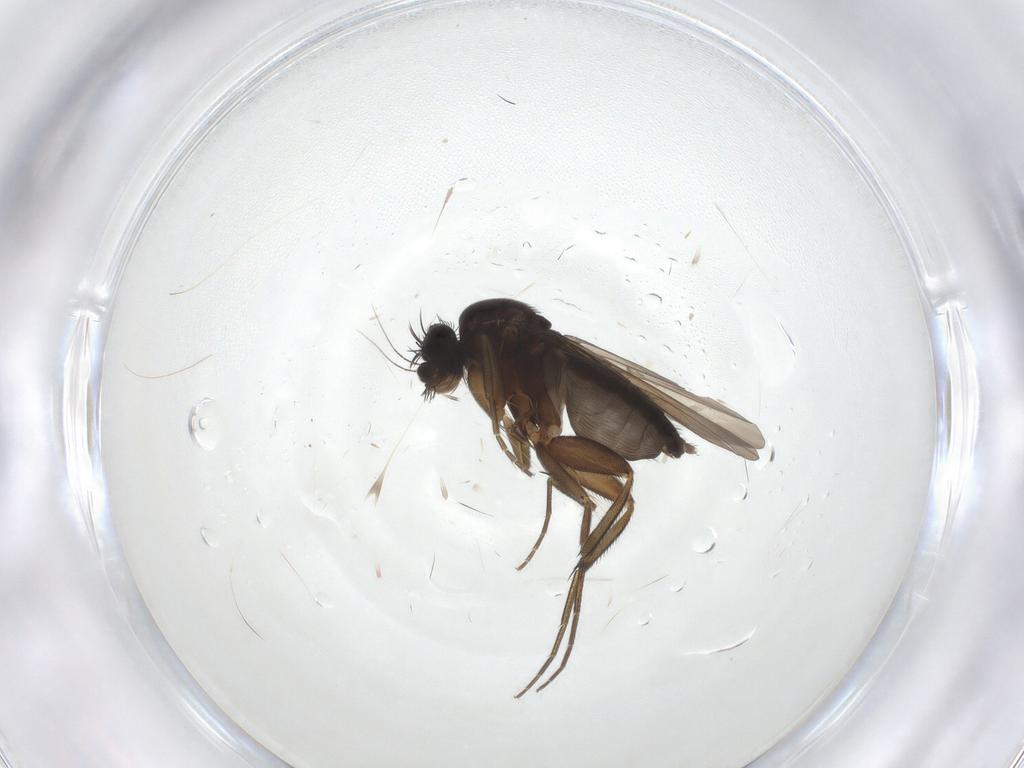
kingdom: Animalia
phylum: Arthropoda
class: Insecta
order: Diptera
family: Phoridae
